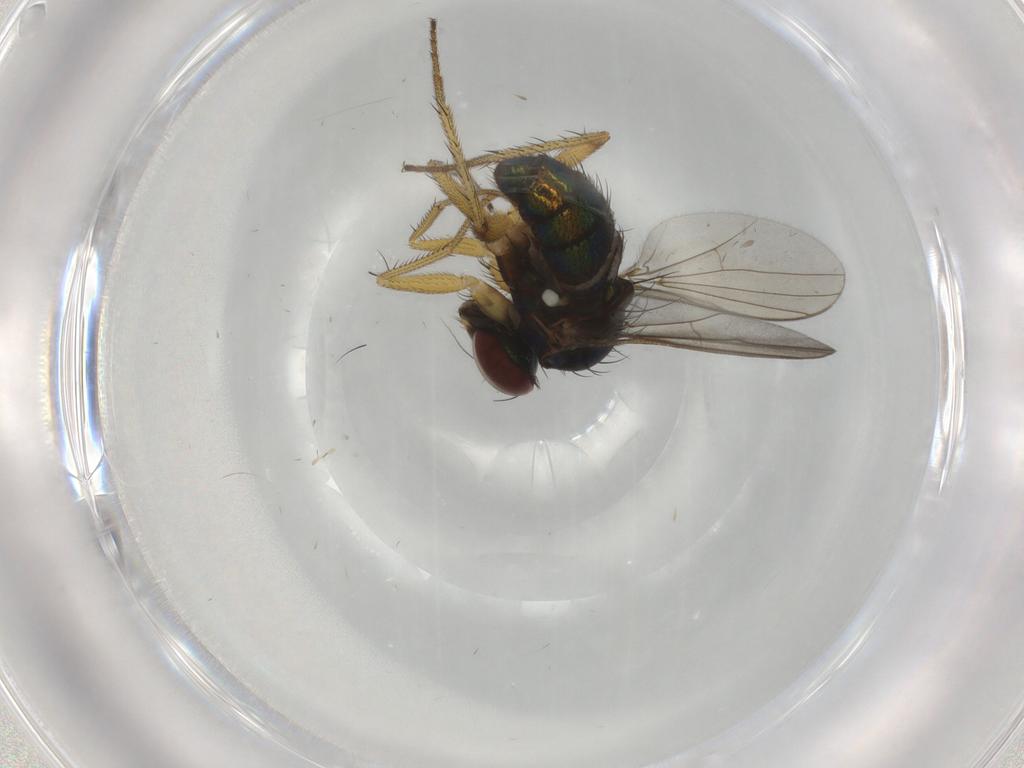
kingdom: Animalia
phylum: Arthropoda
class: Insecta
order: Diptera
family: Dolichopodidae
